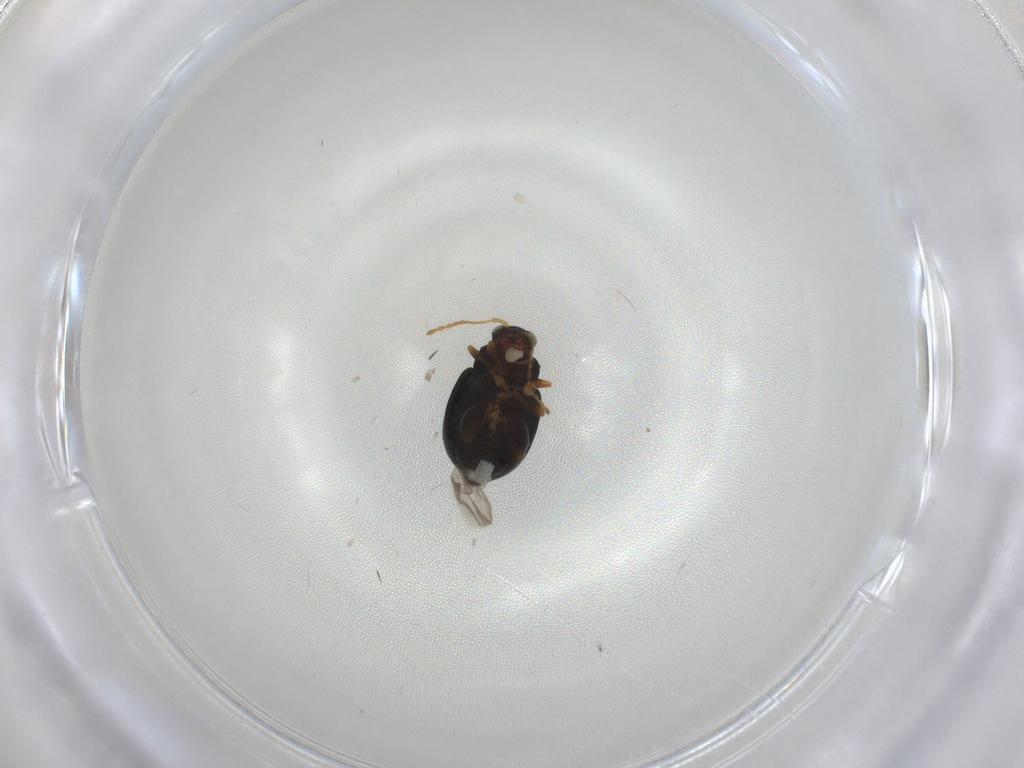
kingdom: Animalia
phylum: Arthropoda
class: Insecta
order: Coleoptera
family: Chrysomelidae
